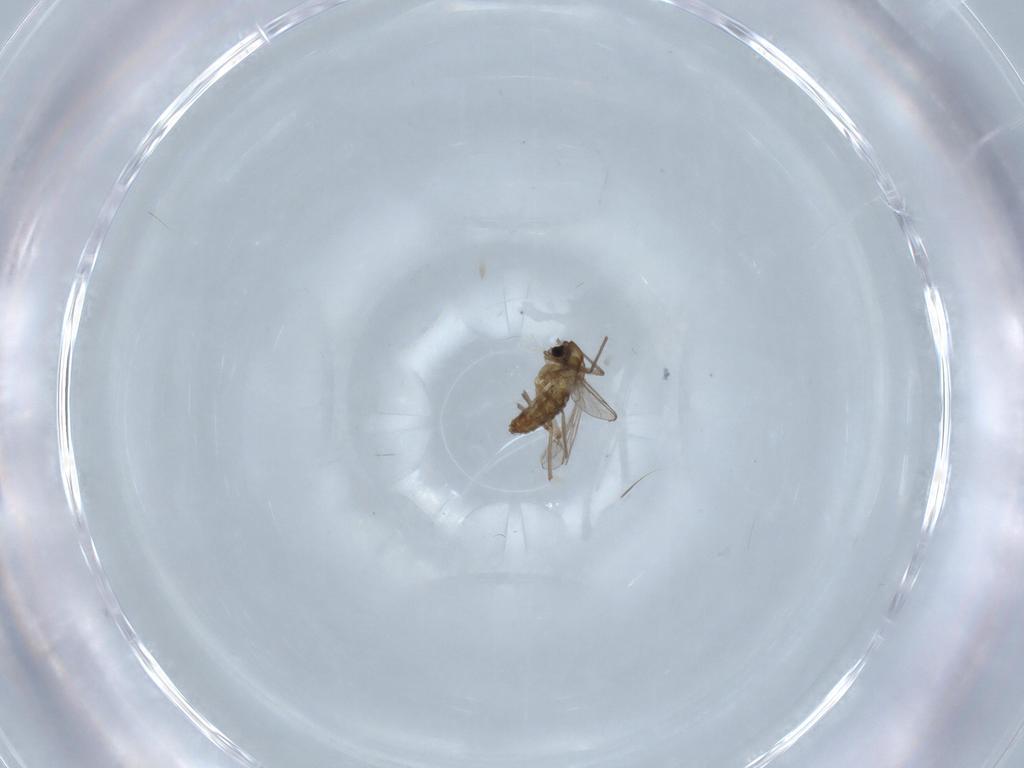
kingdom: Animalia
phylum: Arthropoda
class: Insecta
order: Diptera
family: Chironomidae
